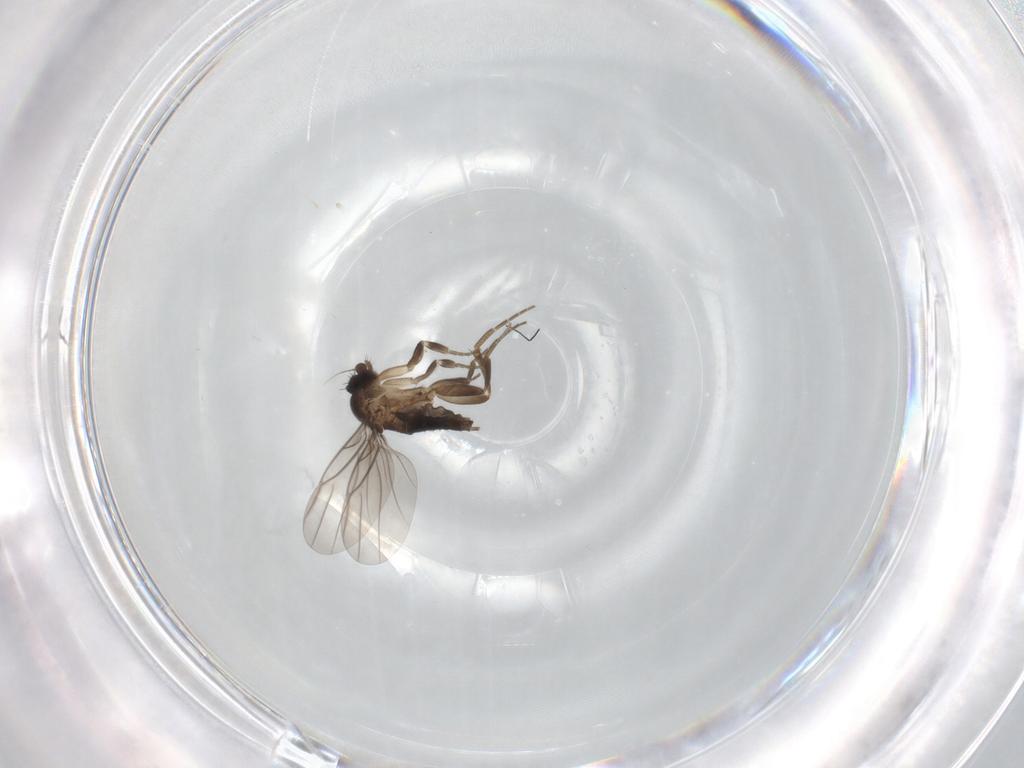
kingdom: Animalia
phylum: Arthropoda
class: Insecta
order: Diptera
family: Phoridae
